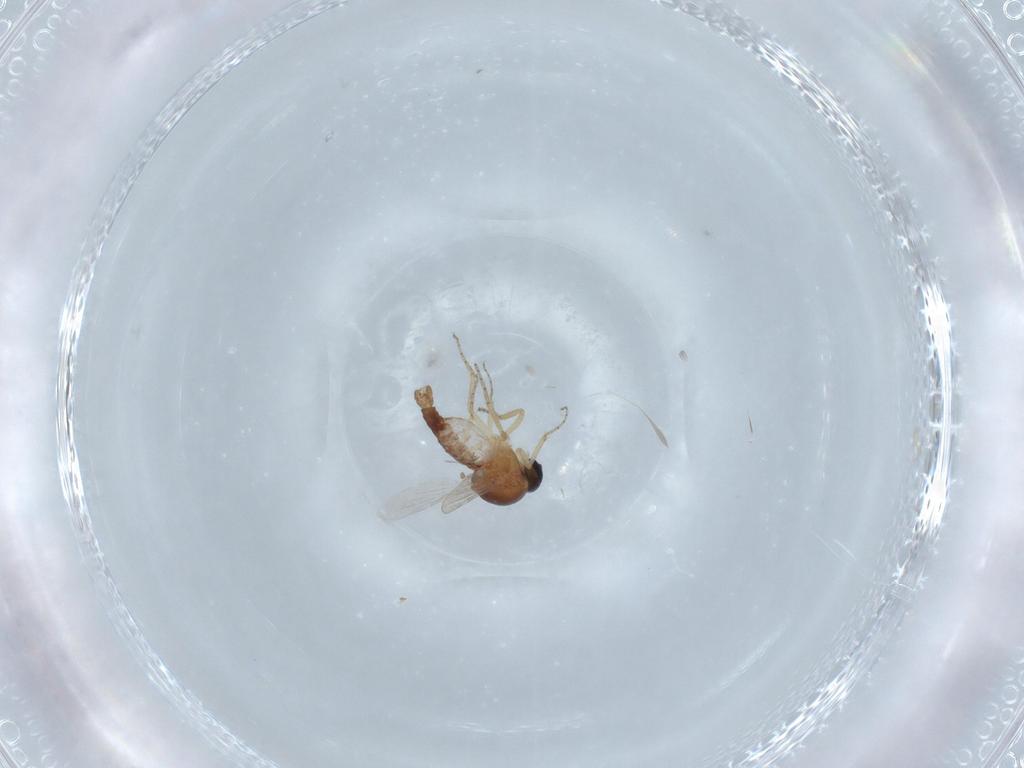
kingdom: Animalia
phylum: Arthropoda
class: Insecta
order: Diptera
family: Ceratopogonidae
